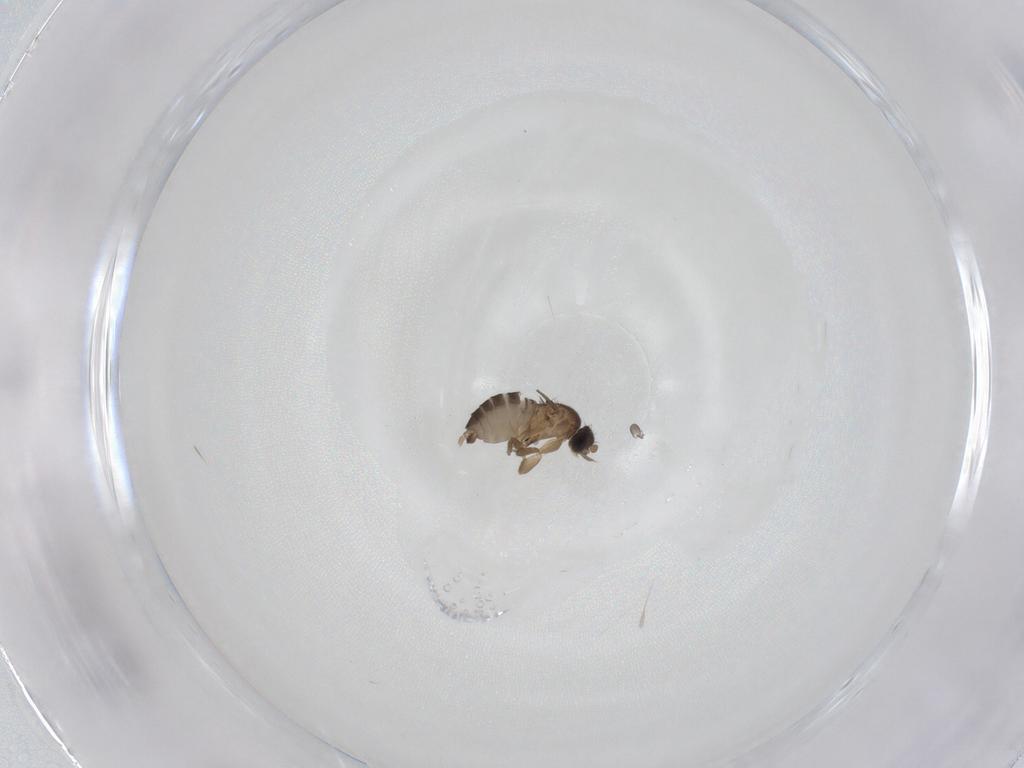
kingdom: Animalia
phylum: Arthropoda
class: Insecta
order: Diptera
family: Phoridae
